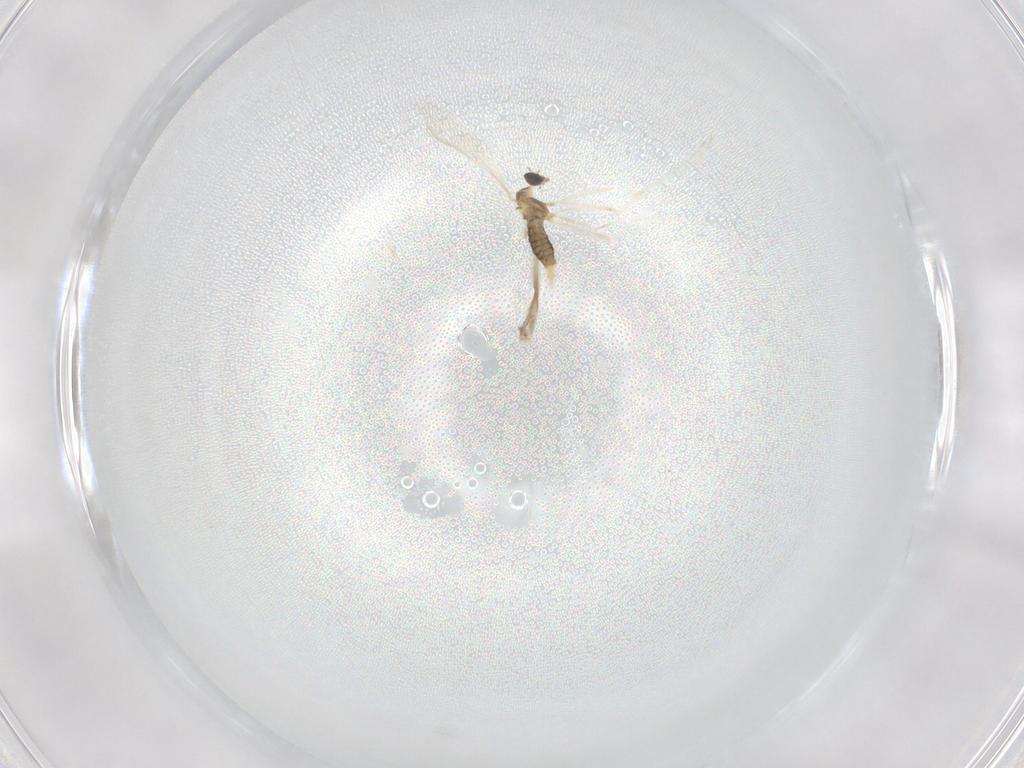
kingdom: Animalia
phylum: Arthropoda
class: Insecta
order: Diptera
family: Cecidomyiidae
